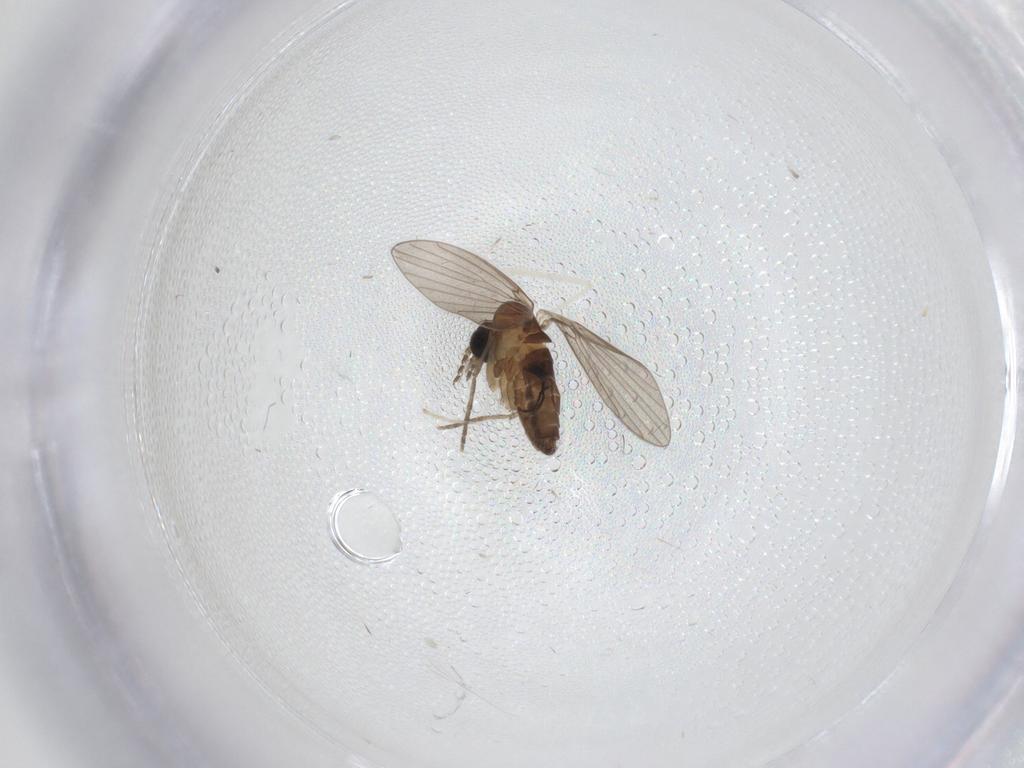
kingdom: Animalia
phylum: Arthropoda
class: Insecta
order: Diptera
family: Cecidomyiidae
